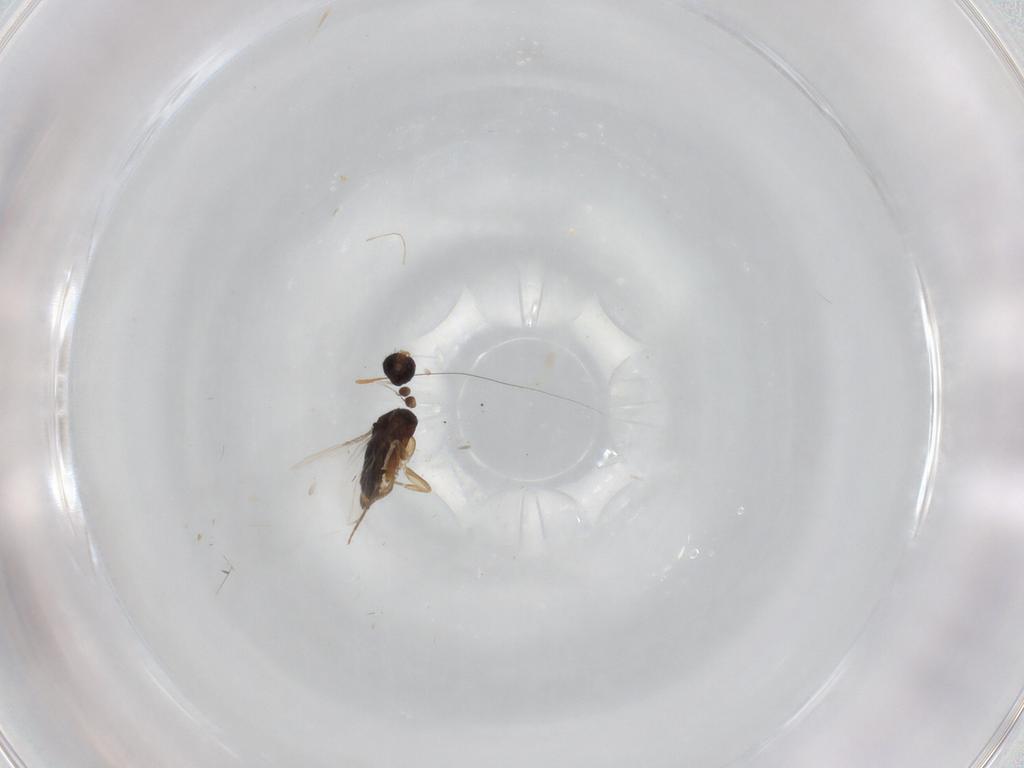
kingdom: Animalia
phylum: Arthropoda
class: Insecta
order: Diptera
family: Phoridae
